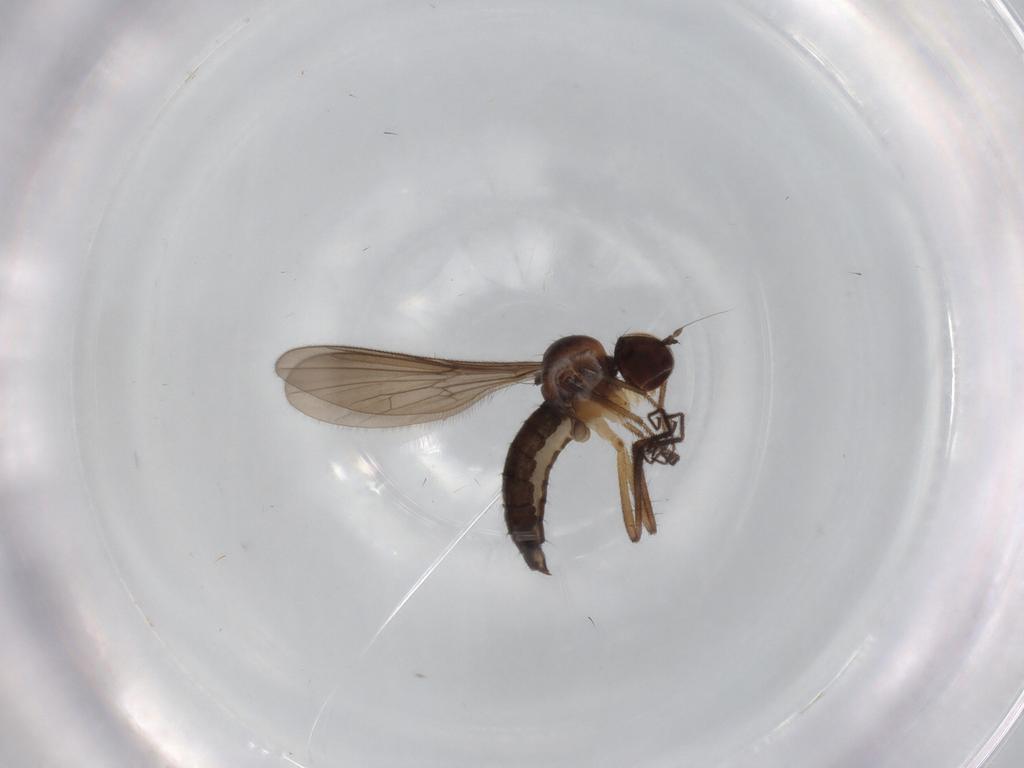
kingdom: Animalia
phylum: Arthropoda
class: Insecta
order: Diptera
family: Hybotidae
